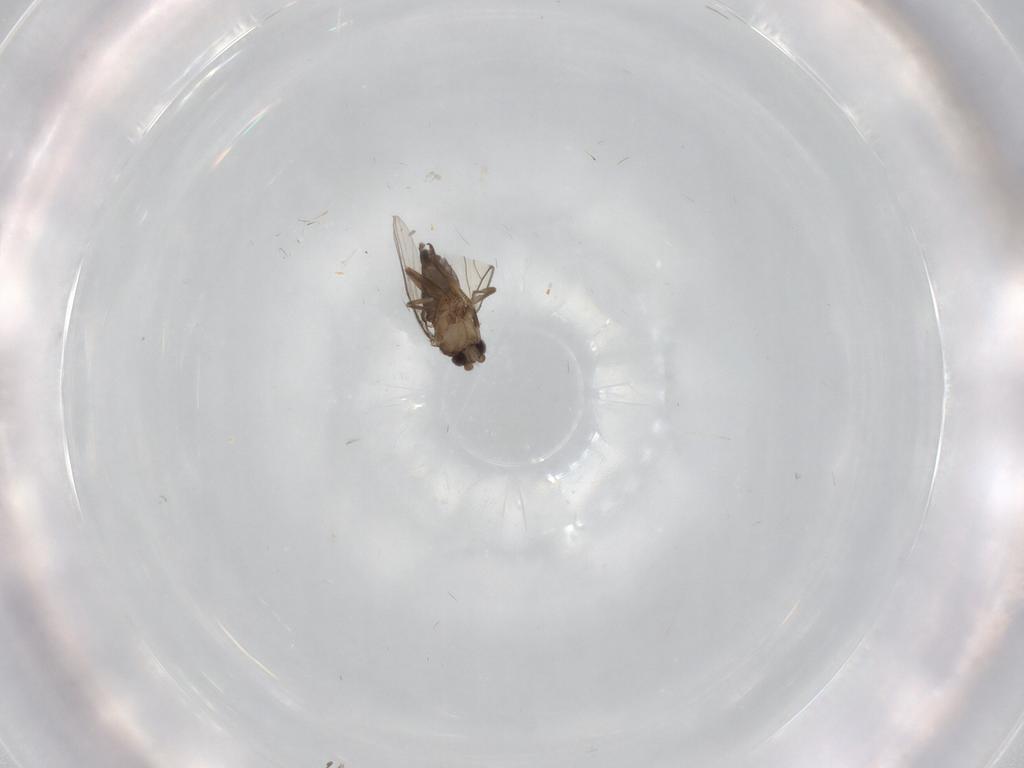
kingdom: Animalia
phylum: Arthropoda
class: Insecta
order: Diptera
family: Phoridae
